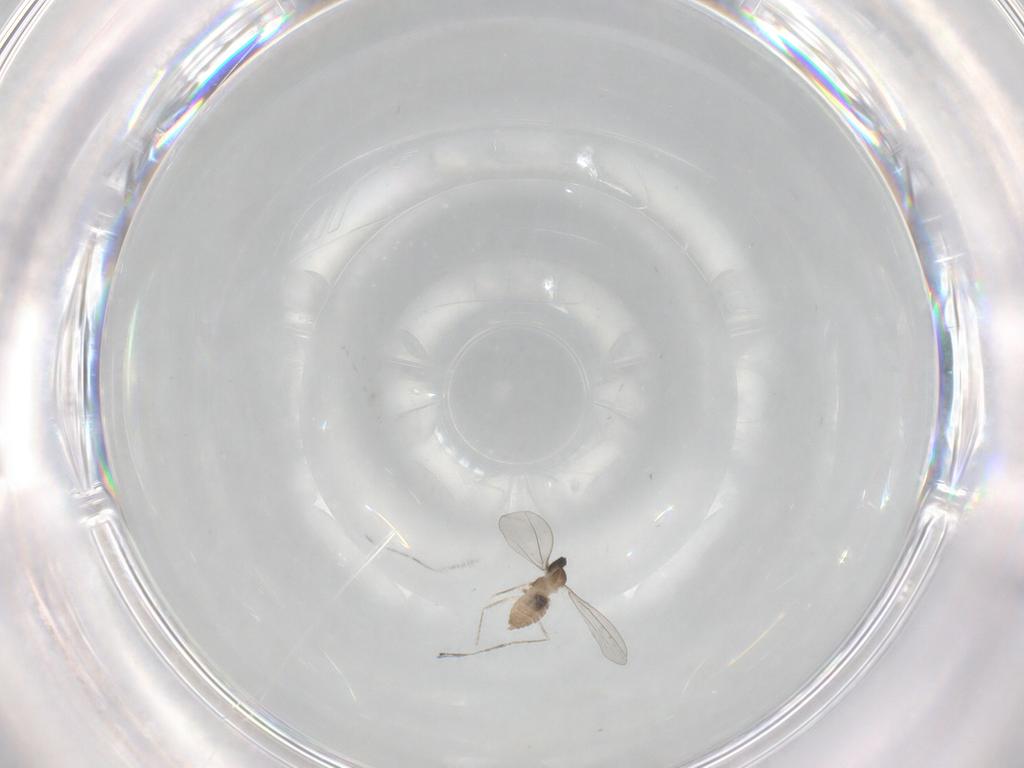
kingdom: Animalia
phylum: Arthropoda
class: Insecta
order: Diptera
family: Cecidomyiidae
